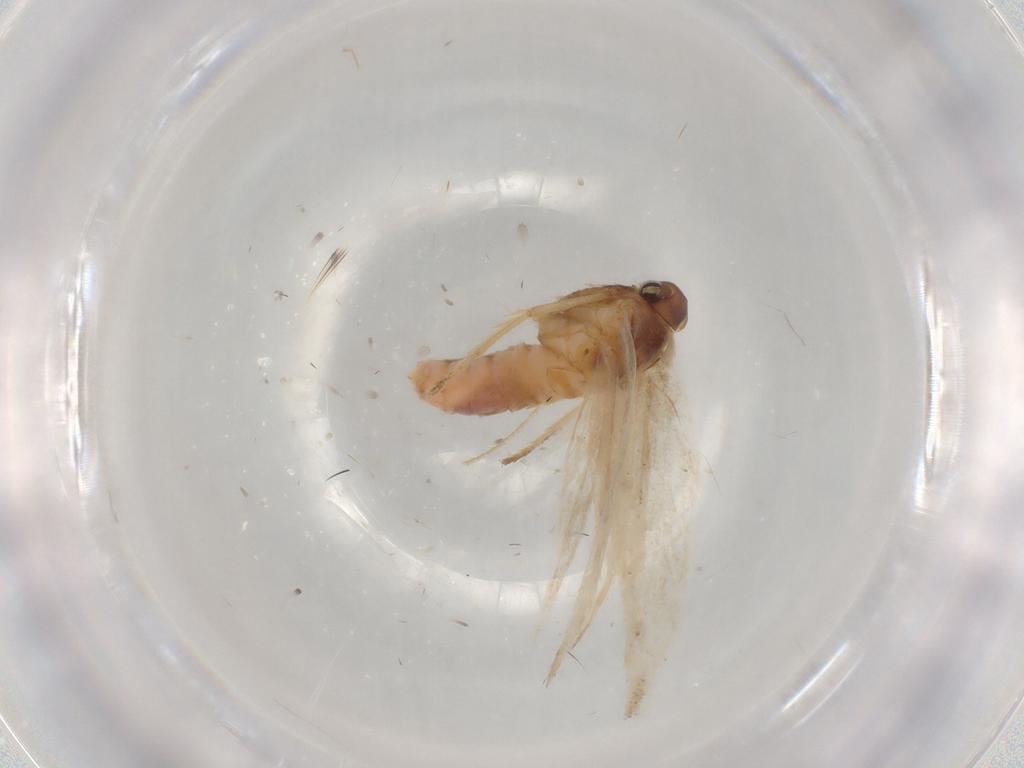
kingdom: Animalia
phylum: Arthropoda
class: Insecta
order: Lepidoptera
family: Gelechiidae
